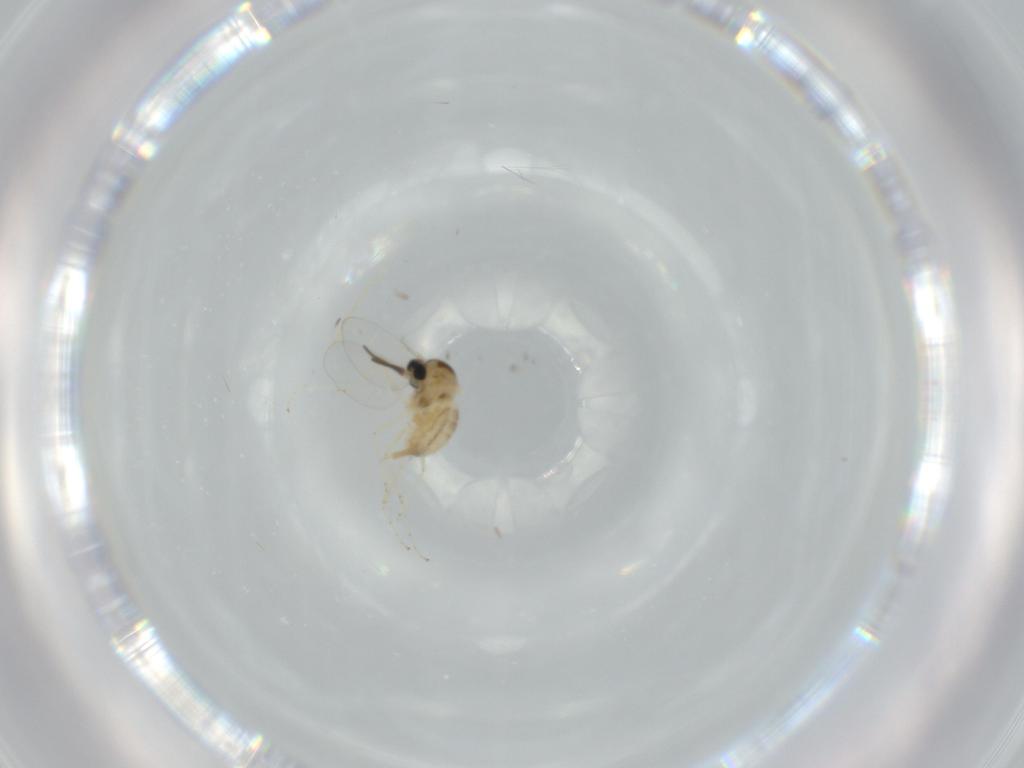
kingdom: Animalia
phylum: Arthropoda
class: Insecta
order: Diptera
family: Cecidomyiidae
